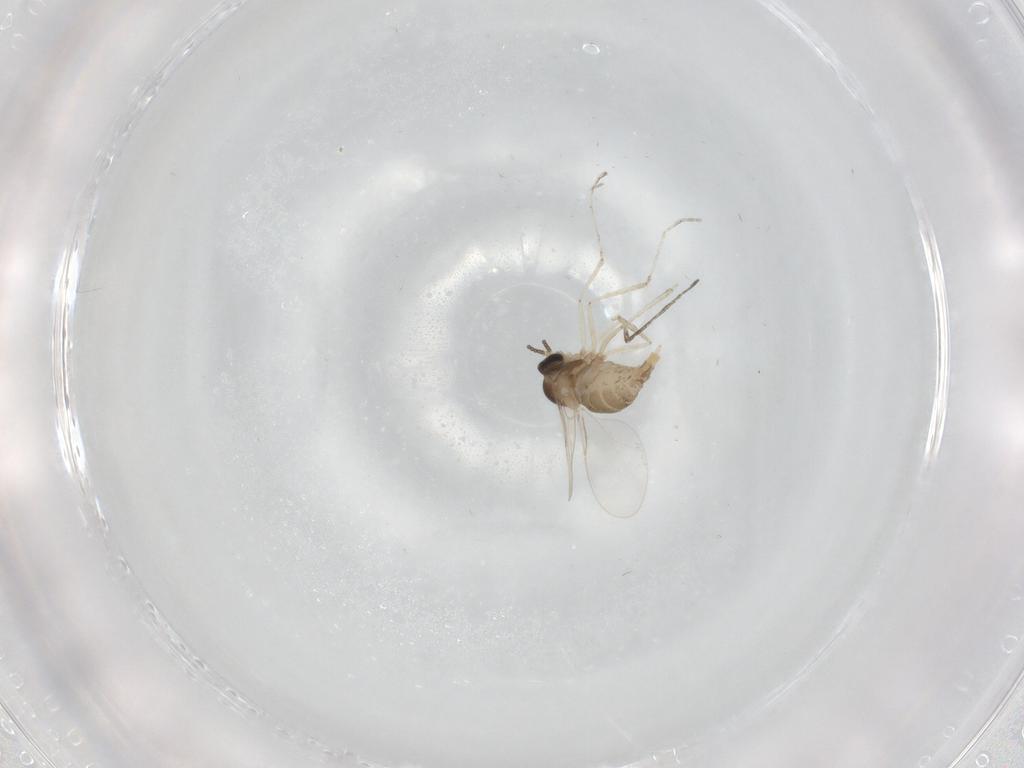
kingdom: Animalia
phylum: Arthropoda
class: Insecta
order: Diptera
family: Cecidomyiidae
